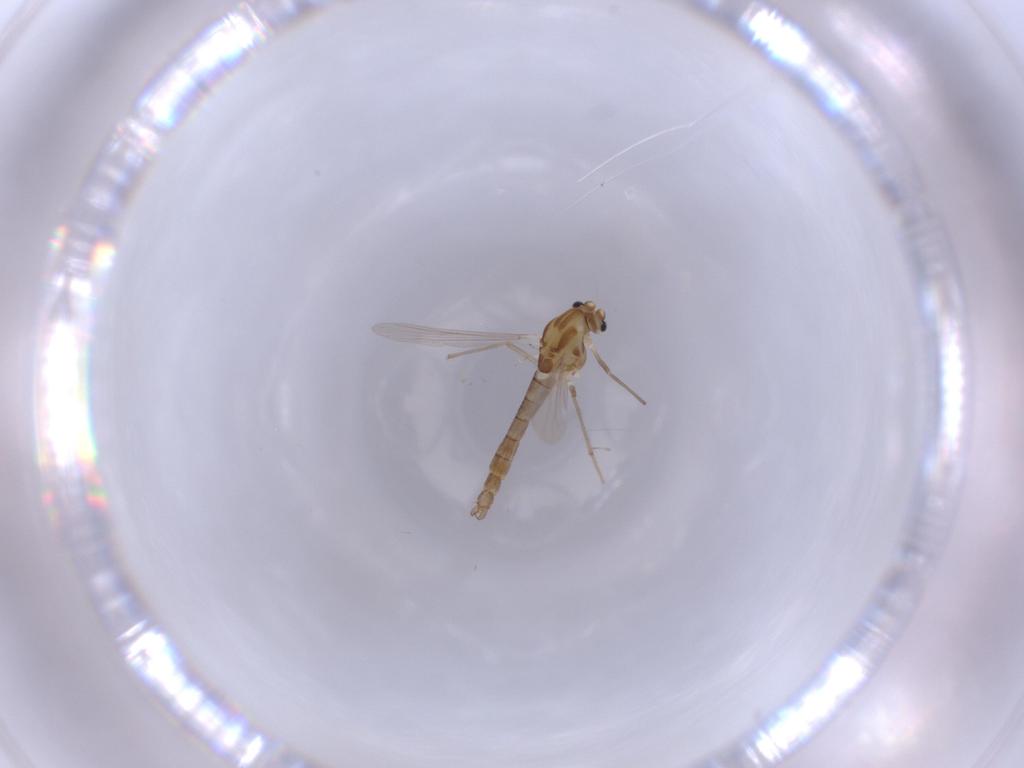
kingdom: Animalia
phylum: Arthropoda
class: Insecta
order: Diptera
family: Chironomidae
